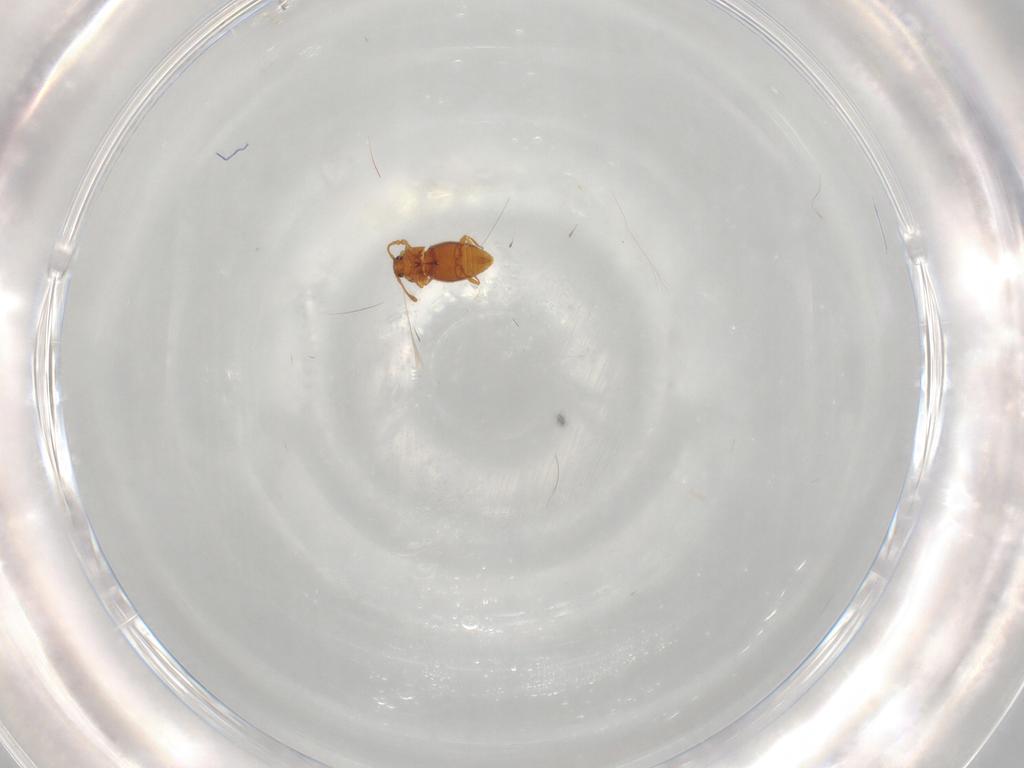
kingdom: Animalia
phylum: Arthropoda
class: Insecta
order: Coleoptera
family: Staphylinidae
